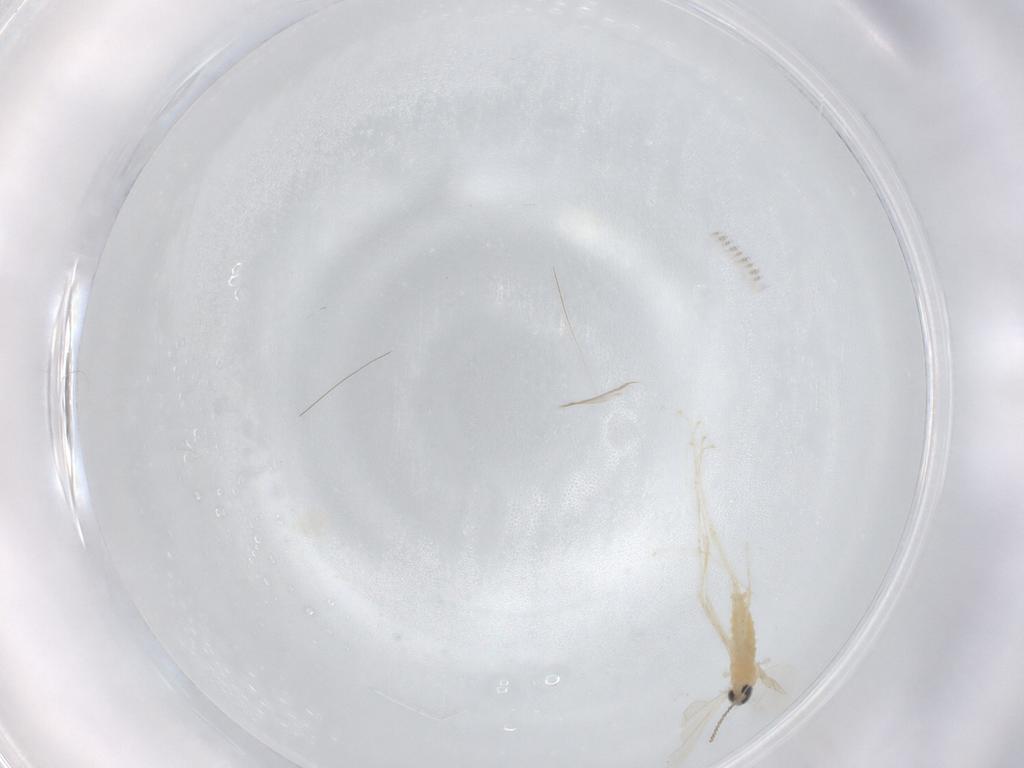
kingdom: Animalia
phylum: Arthropoda
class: Insecta
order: Diptera
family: Cecidomyiidae
